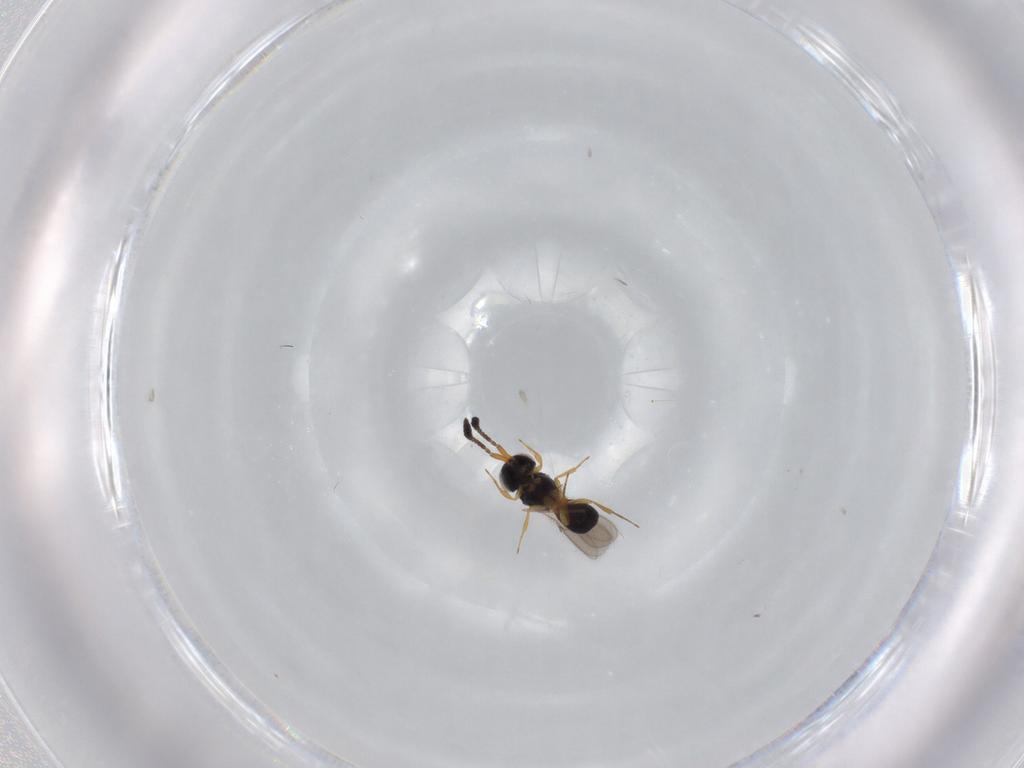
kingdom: Animalia
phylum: Arthropoda
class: Insecta
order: Hymenoptera
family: Scelionidae
